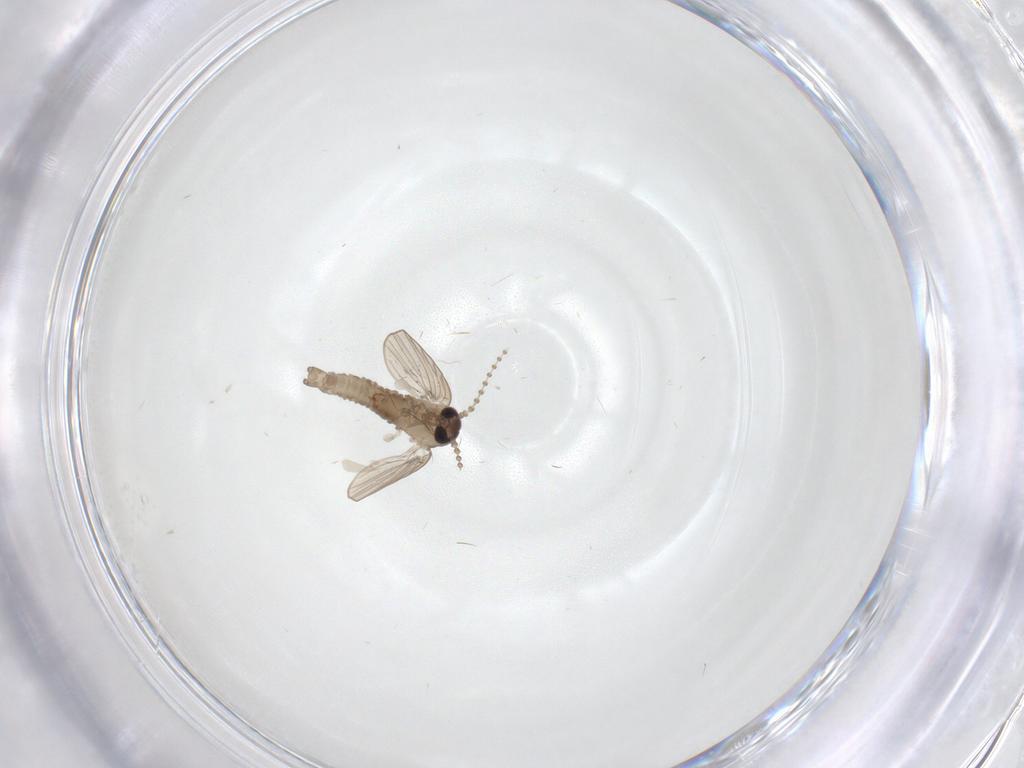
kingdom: Animalia
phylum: Arthropoda
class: Insecta
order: Diptera
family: Psychodidae
